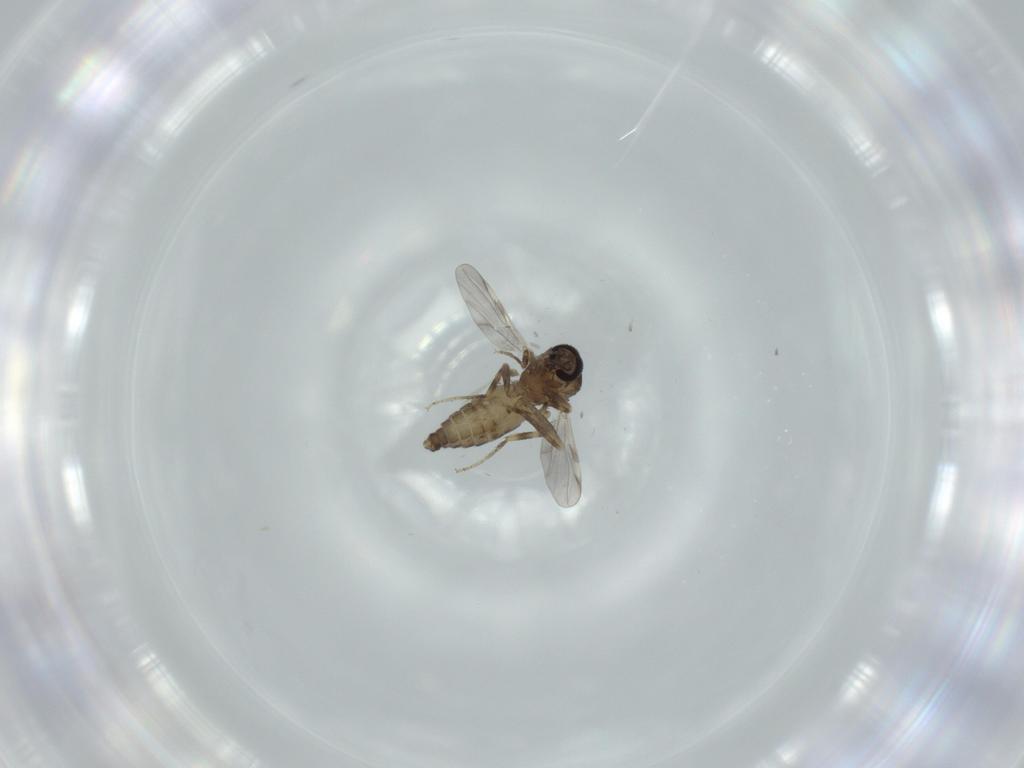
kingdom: Animalia
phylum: Arthropoda
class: Insecta
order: Diptera
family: Ceratopogonidae
